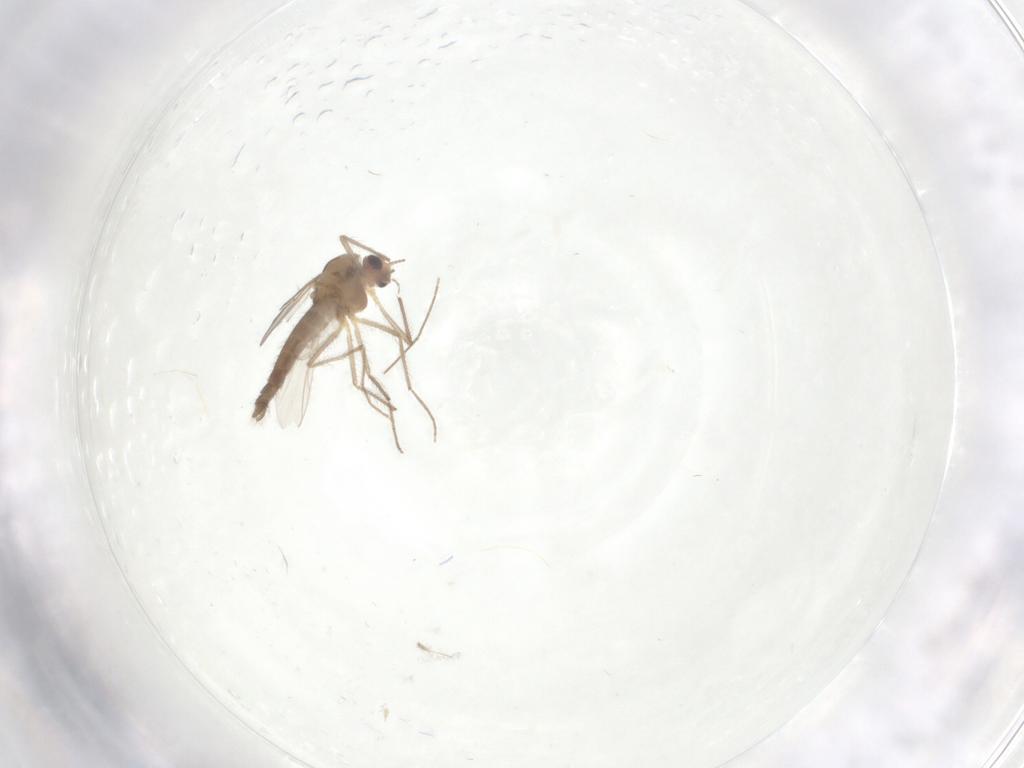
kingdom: Animalia
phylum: Arthropoda
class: Insecta
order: Diptera
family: Chironomidae
